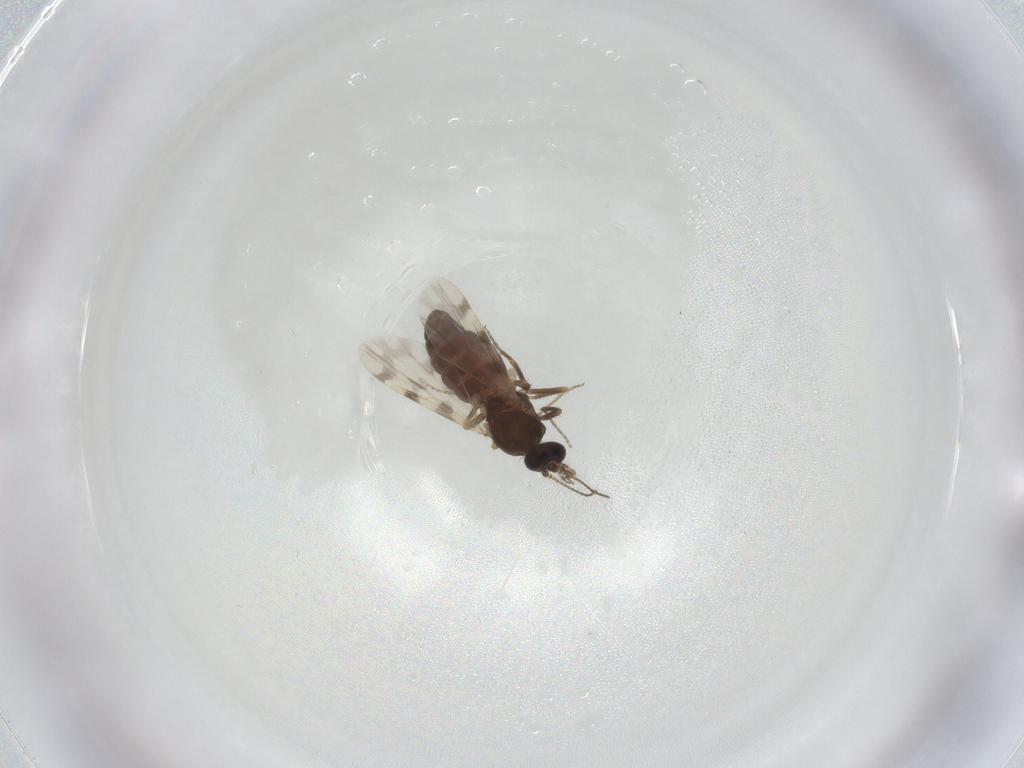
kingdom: Animalia
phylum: Arthropoda
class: Insecta
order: Diptera
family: Ceratopogonidae
